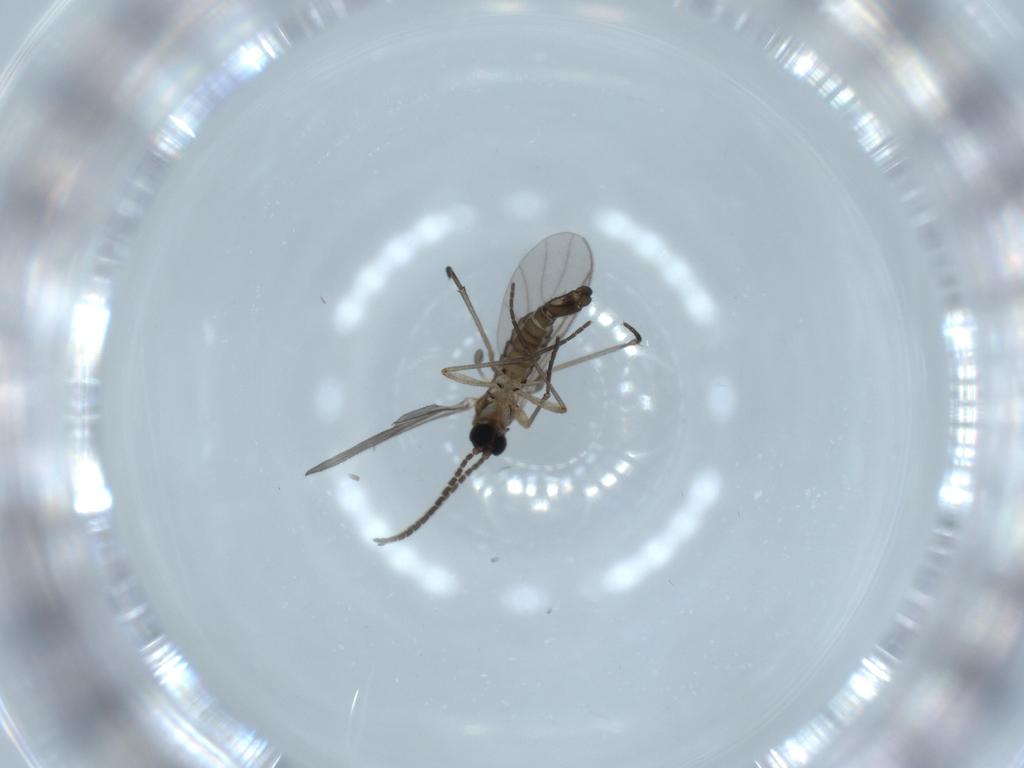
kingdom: Animalia
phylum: Arthropoda
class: Insecta
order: Diptera
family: Sciaridae
